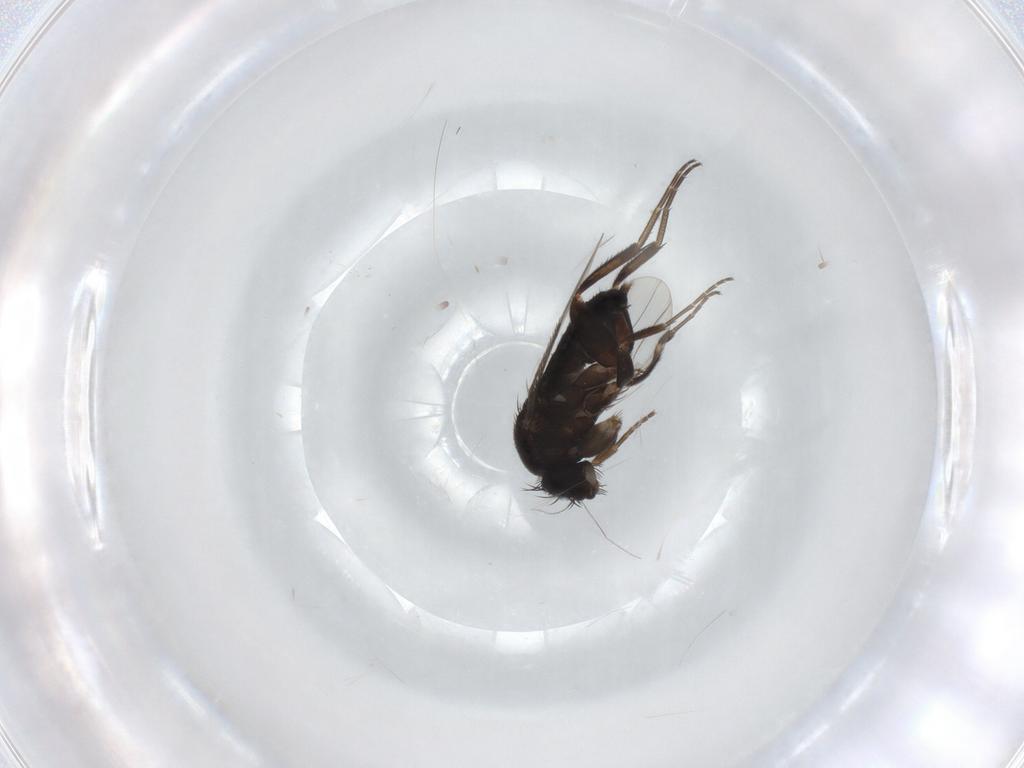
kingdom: Animalia
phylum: Arthropoda
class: Insecta
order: Diptera
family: Phoridae
